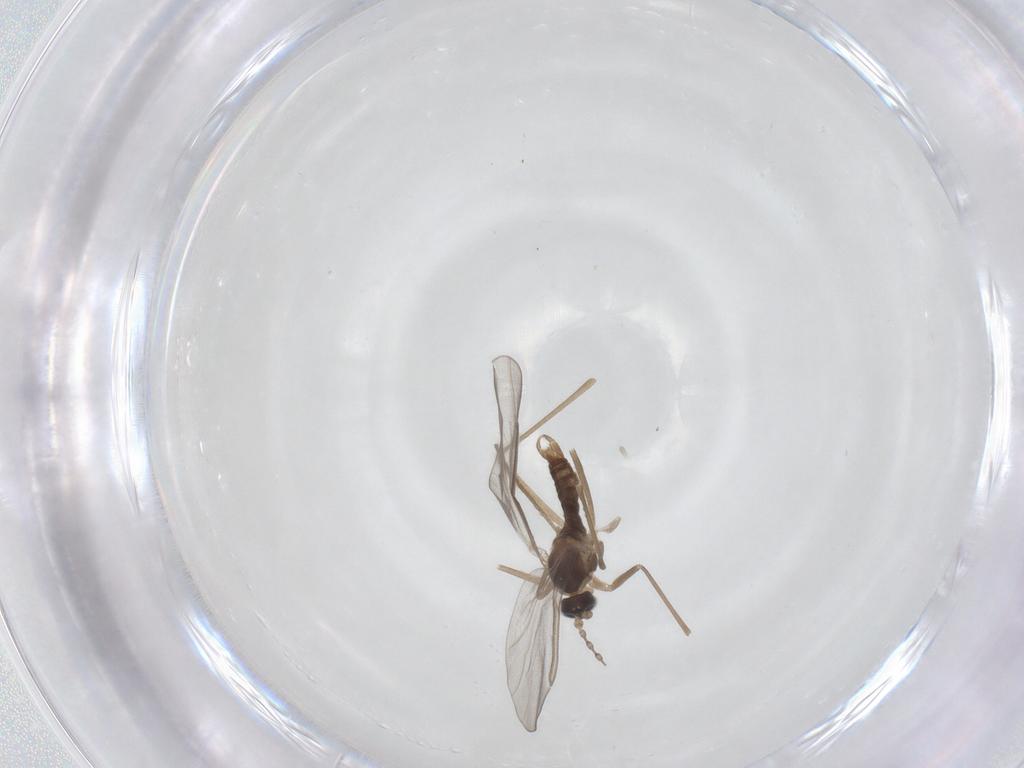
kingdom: Animalia
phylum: Arthropoda
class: Insecta
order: Diptera
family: Cecidomyiidae
